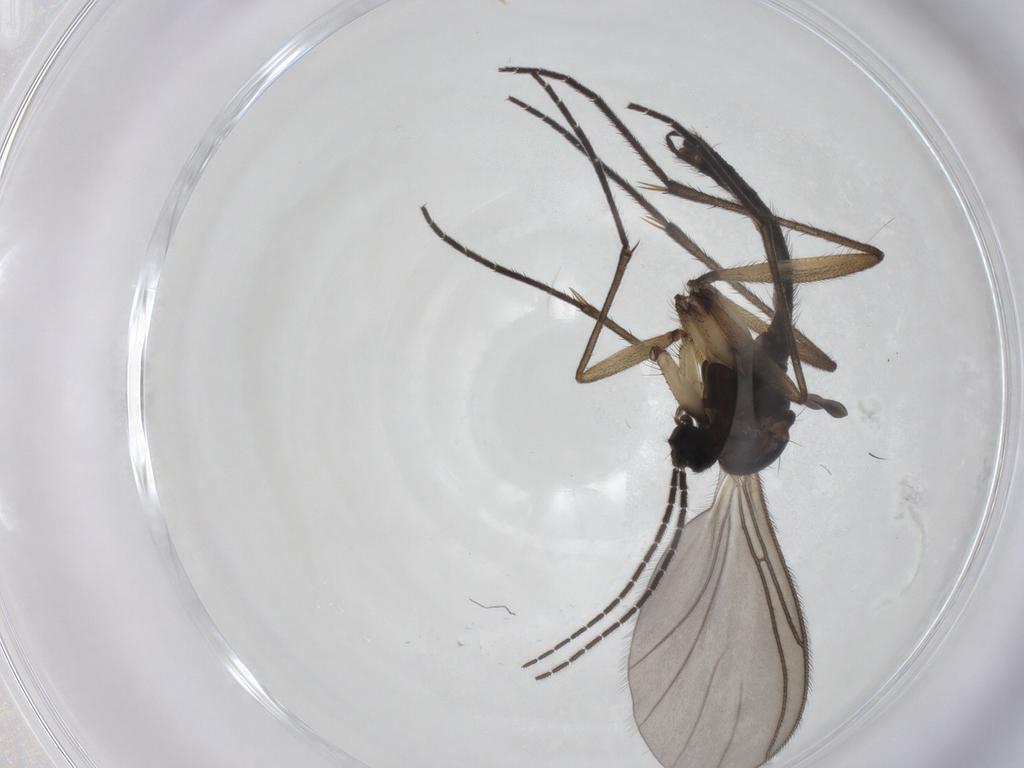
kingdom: Animalia
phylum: Arthropoda
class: Insecta
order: Diptera
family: Sciaridae
